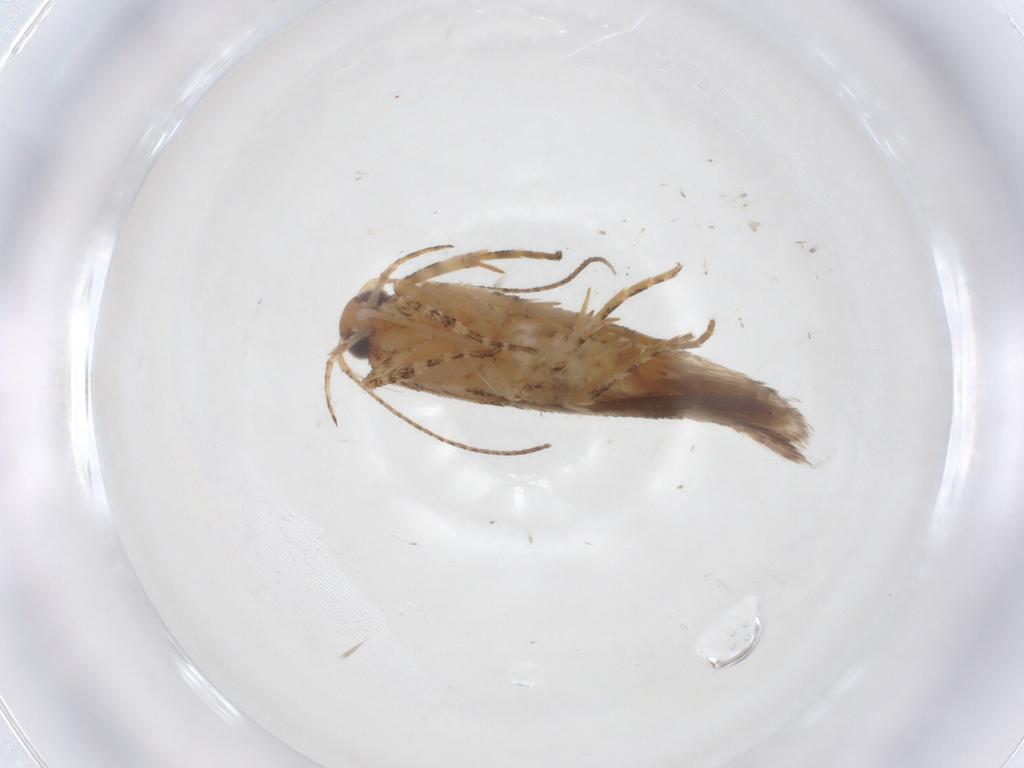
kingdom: Animalia
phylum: Arthropoda
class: Insecta
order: Lepidoptera
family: Gelechiidae
